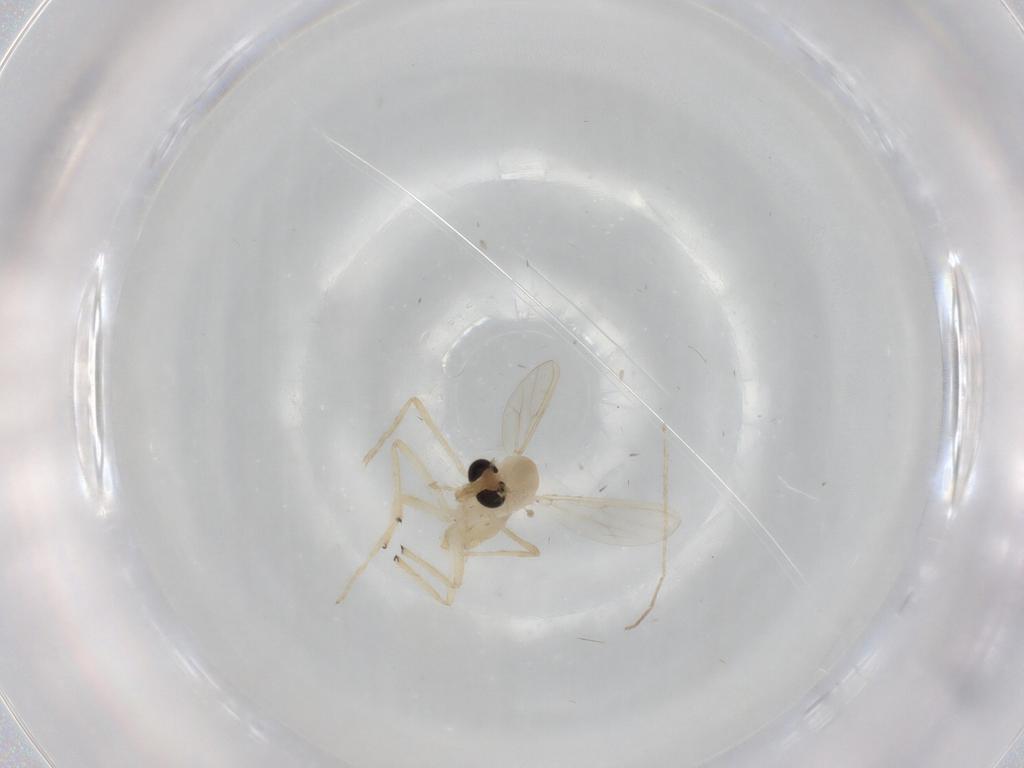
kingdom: Animalia
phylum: Arthropoda
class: Insecta
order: Diptera
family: Chironomidae
